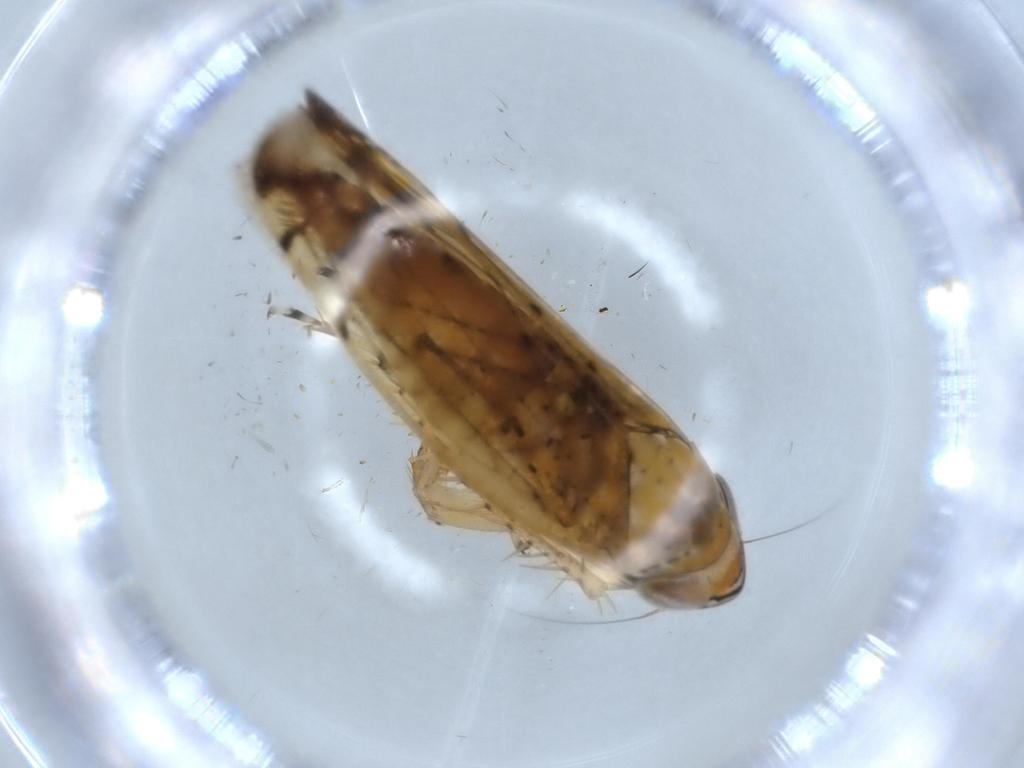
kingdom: Animalia
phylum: Arthropoda
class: Insecta
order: Hemiptera
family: Cicadellidae
